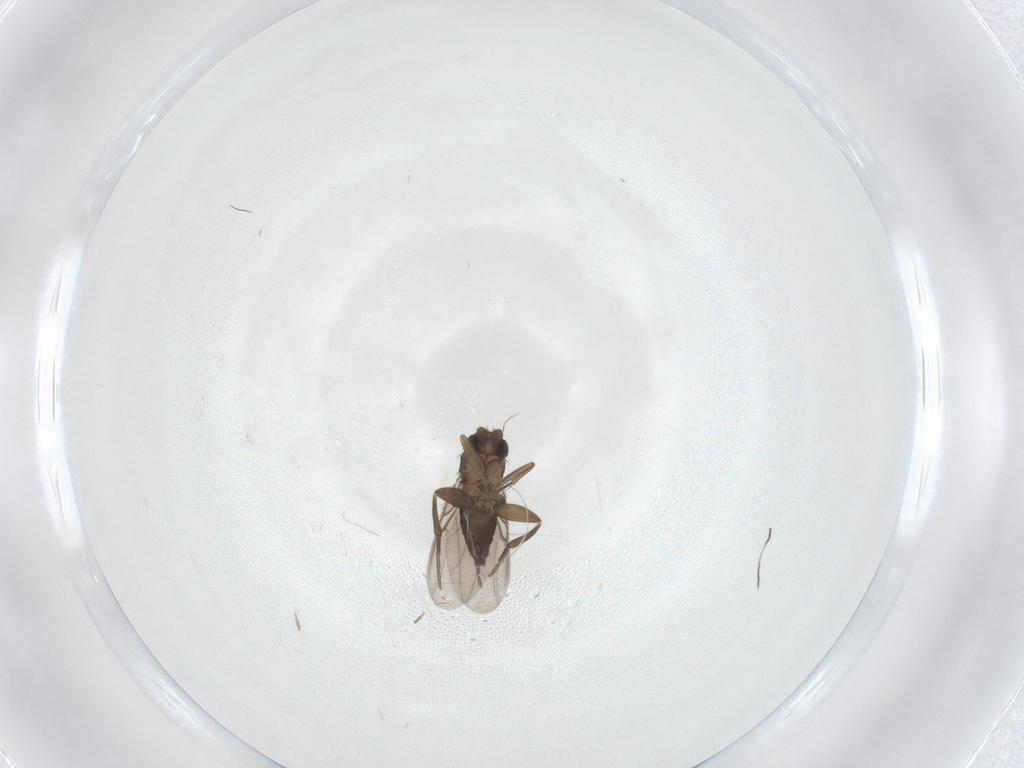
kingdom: Animalia
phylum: Arthropoda
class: Insecta
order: Diptera
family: Phoridae
